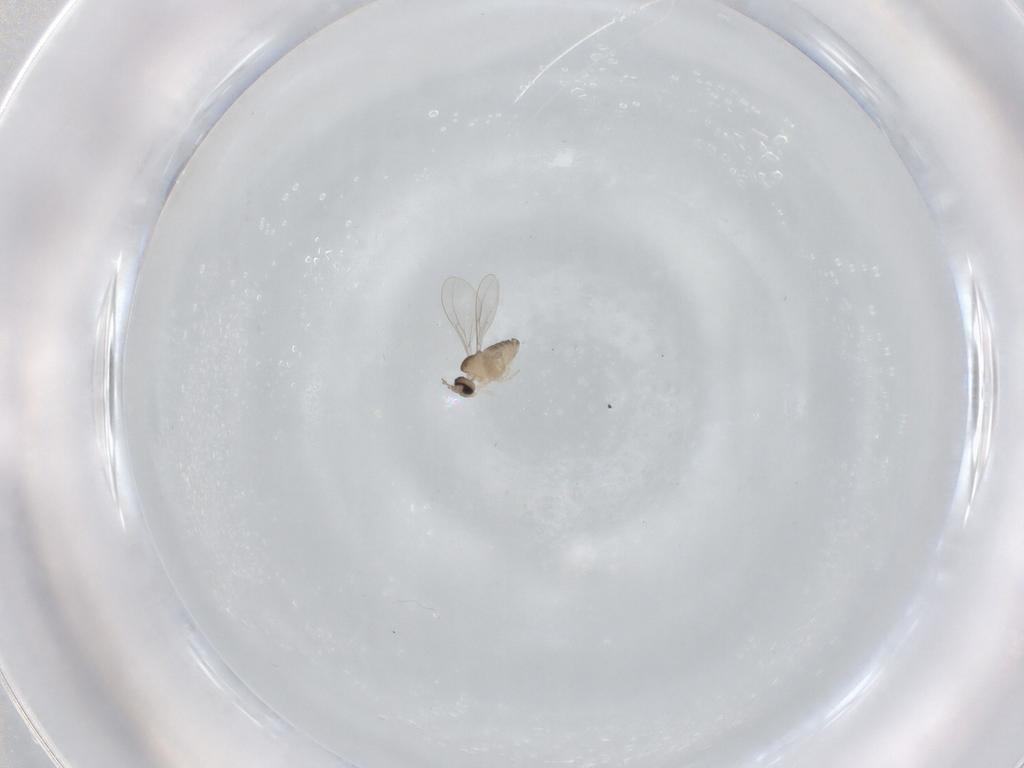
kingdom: Animalia
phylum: Arthropoda
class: Insecta
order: Diptera
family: Cecidomyiidae
